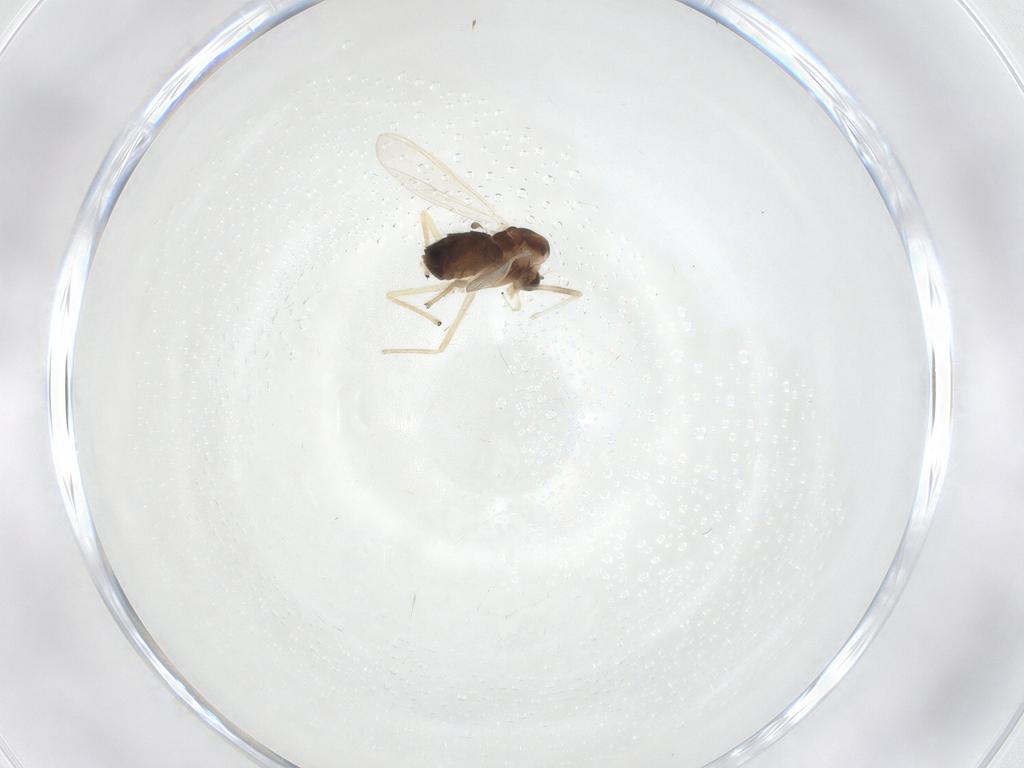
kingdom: Animalia
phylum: Arthropoda
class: Insecta
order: Diptera
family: Chironomidae
